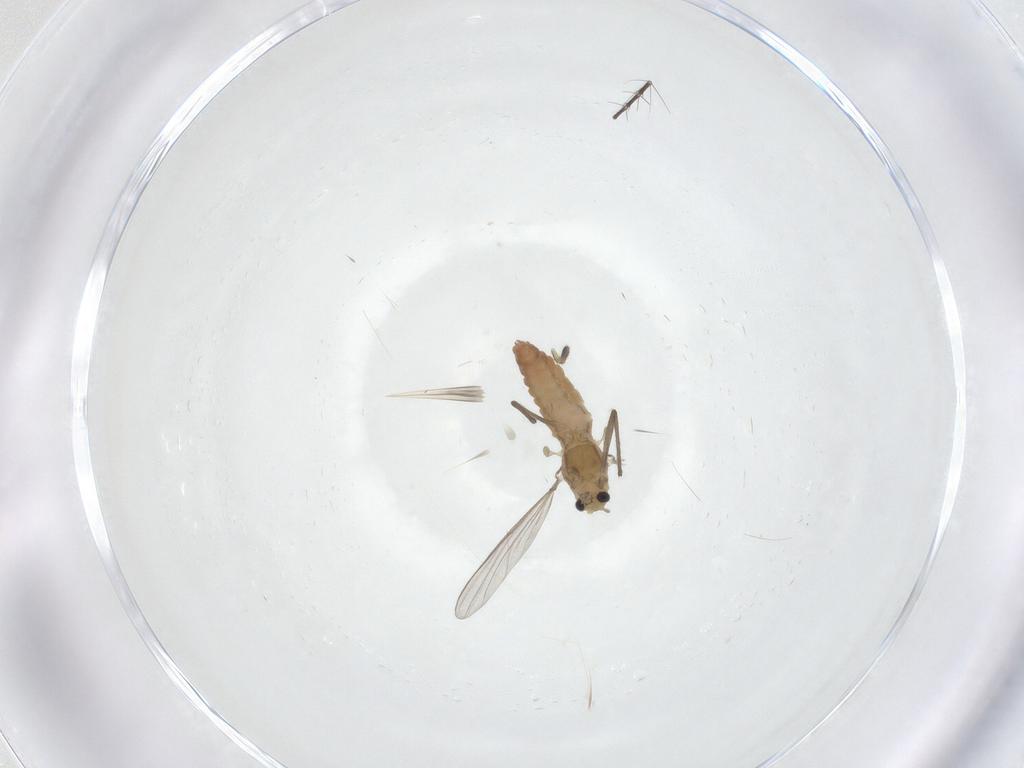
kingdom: Animalia
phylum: Arthropoda
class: Insecta
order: Diptera
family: Chironomidae
